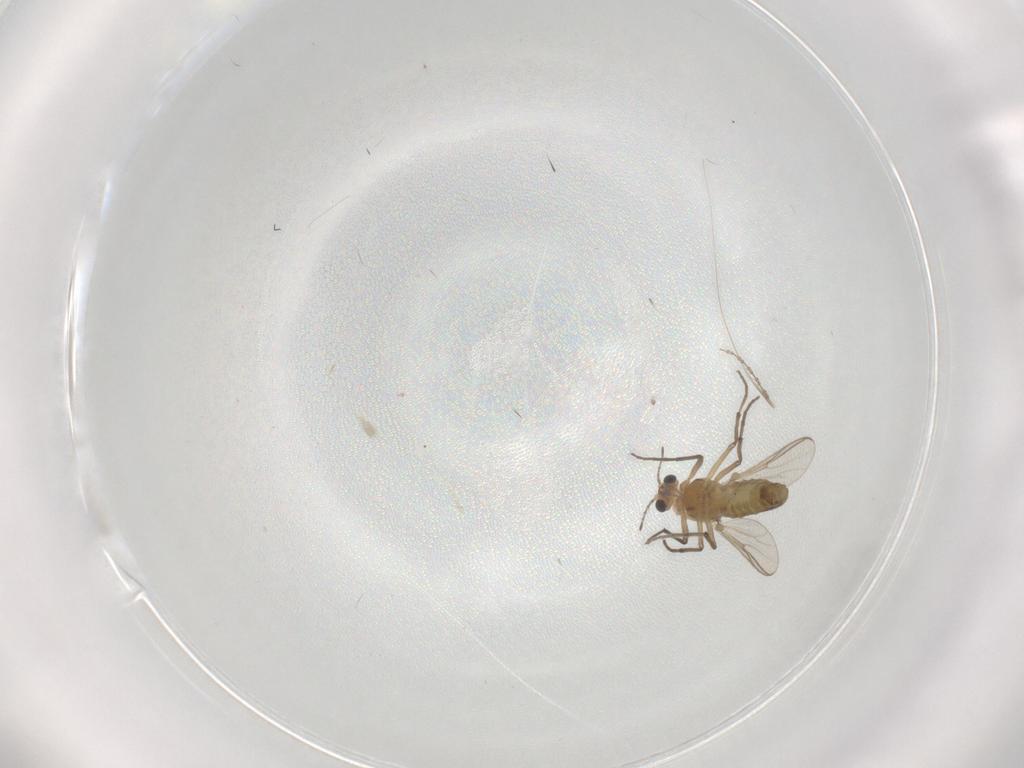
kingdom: Animalia
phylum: Arthropoda
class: Insecta
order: Diptera
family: Chironomidae
